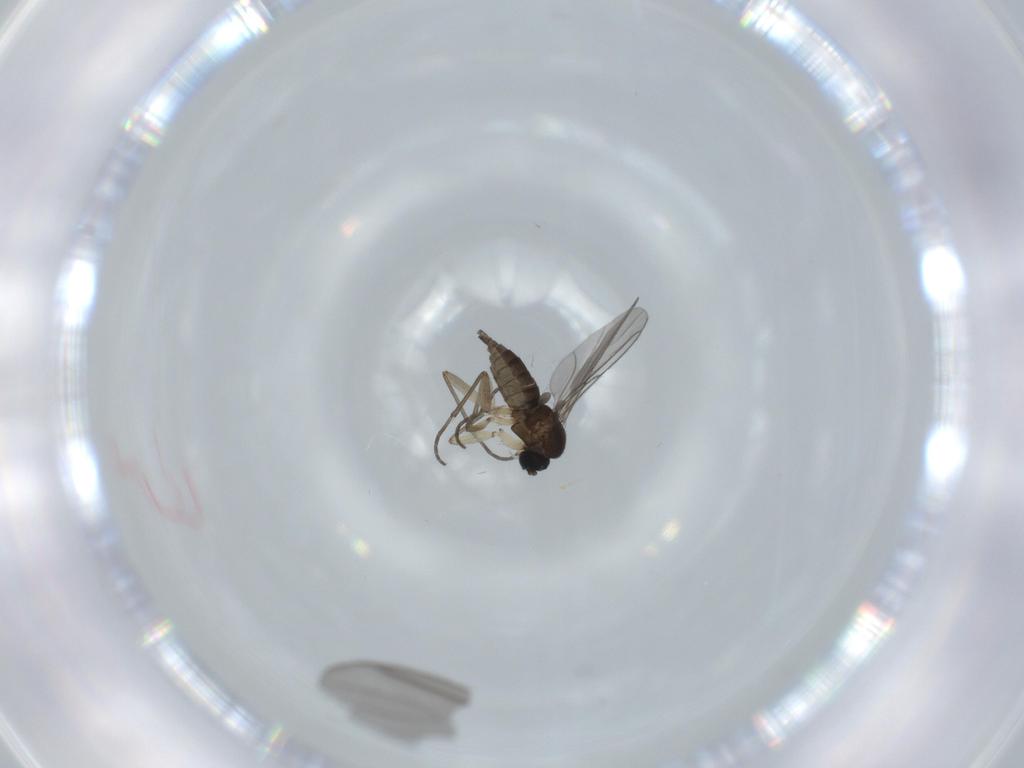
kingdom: Animalia
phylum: Arthropoda
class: Insecta
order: Diptera
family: Sciaridae
